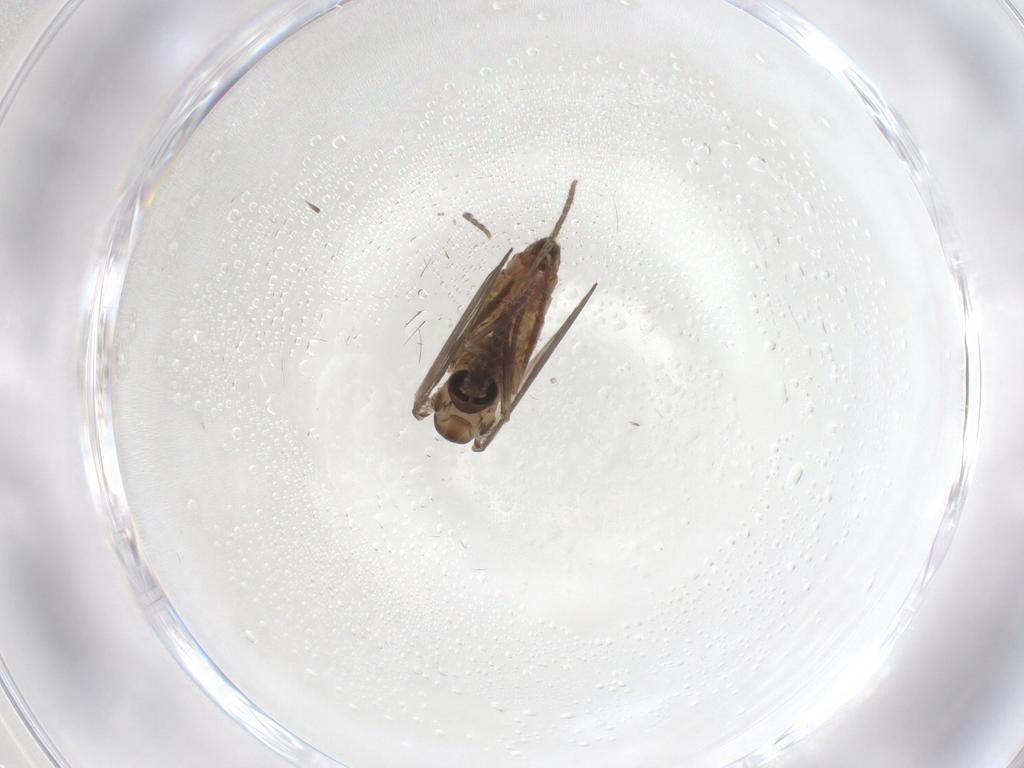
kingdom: Animalia
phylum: Arthropoda
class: Insecta
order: Diptera
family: Psychodidae
